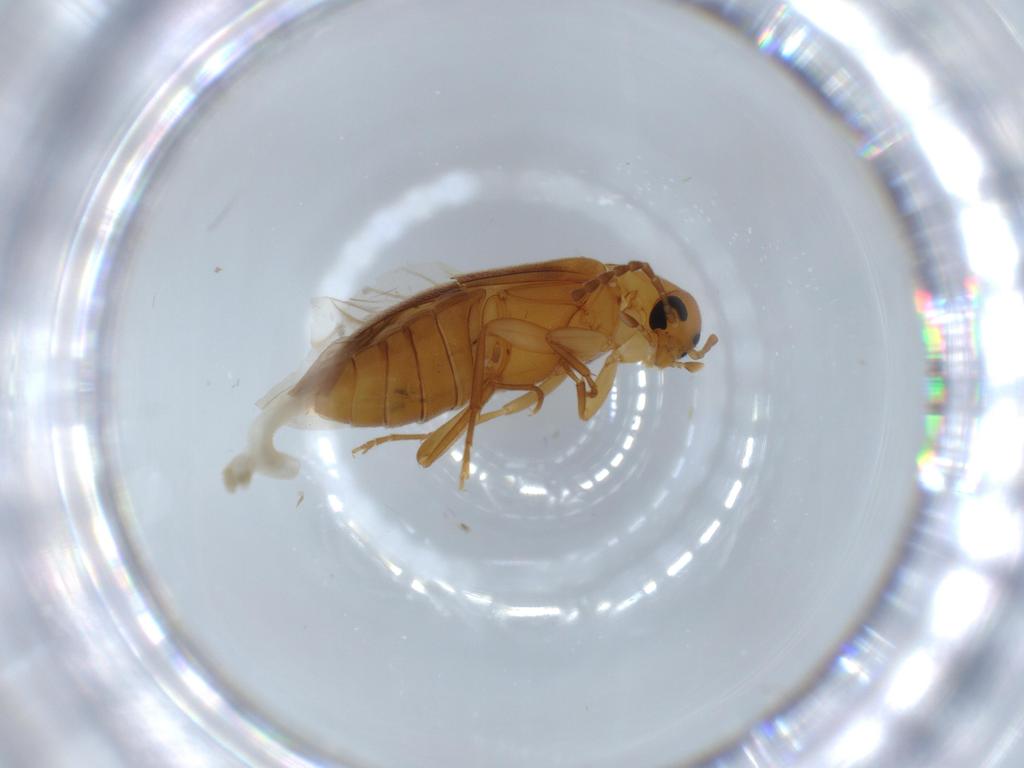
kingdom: Animalia
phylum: Arthropoda
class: Insecta
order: Coleoptera
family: Scraptiidae
